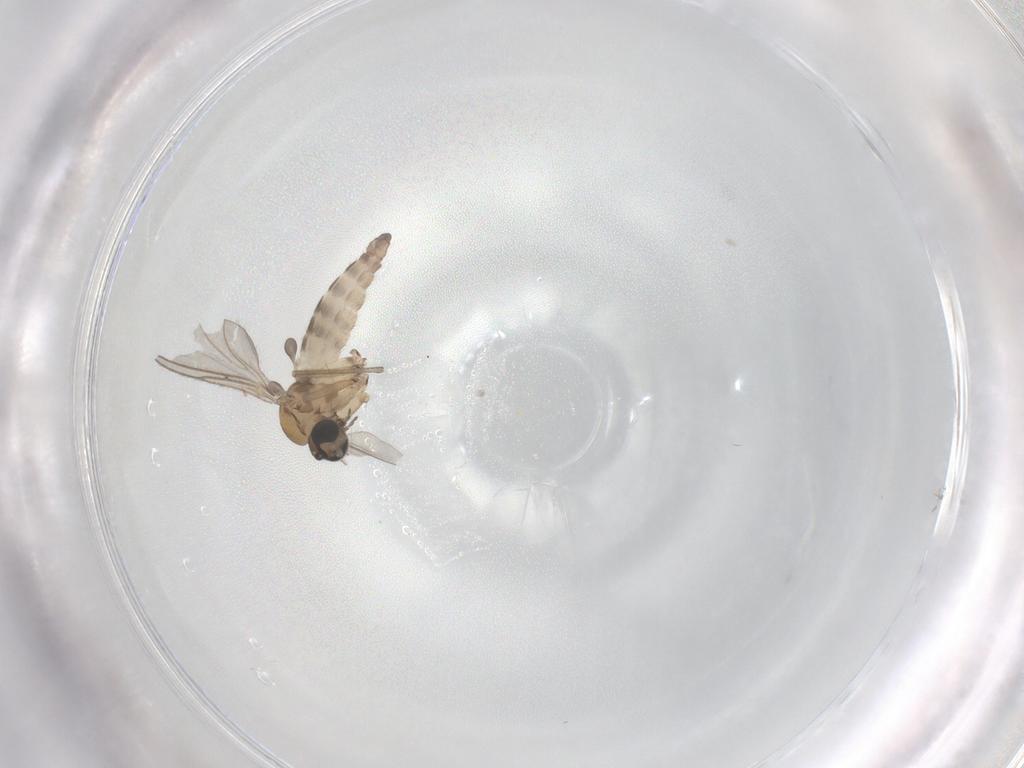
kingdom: Animalia
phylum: Arthropoda
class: Insecta
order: Diptera
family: Sciaridae
